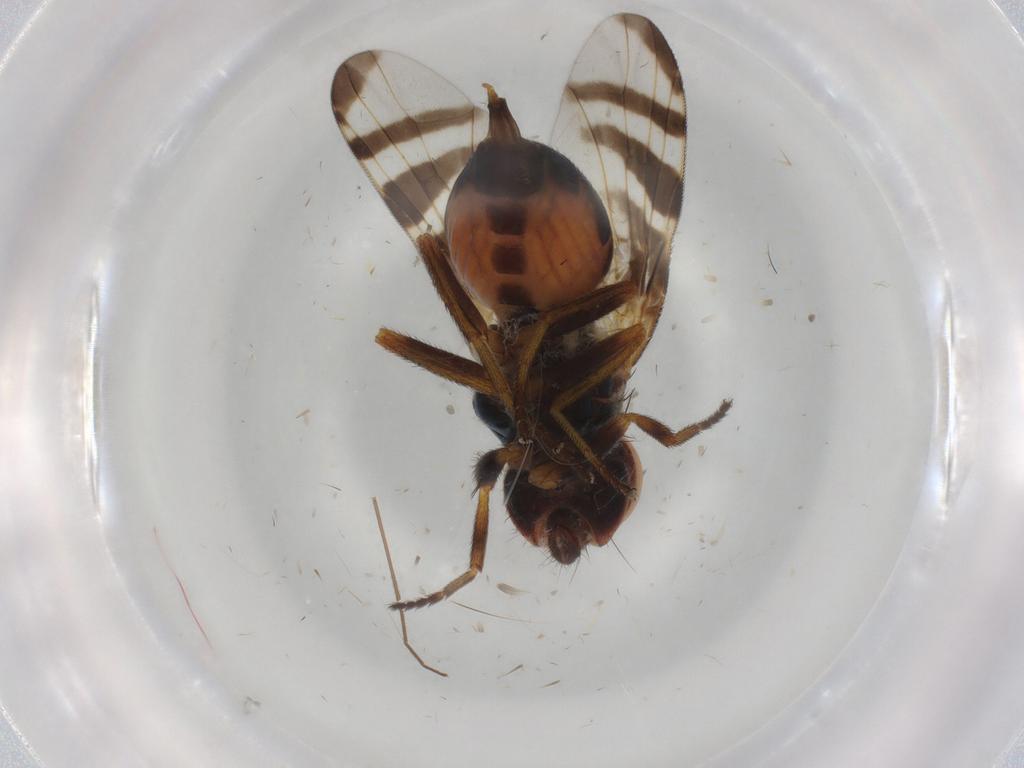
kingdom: Animalia
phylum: Arthropoda
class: Insecta
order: Diptera
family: Platystomatidae
